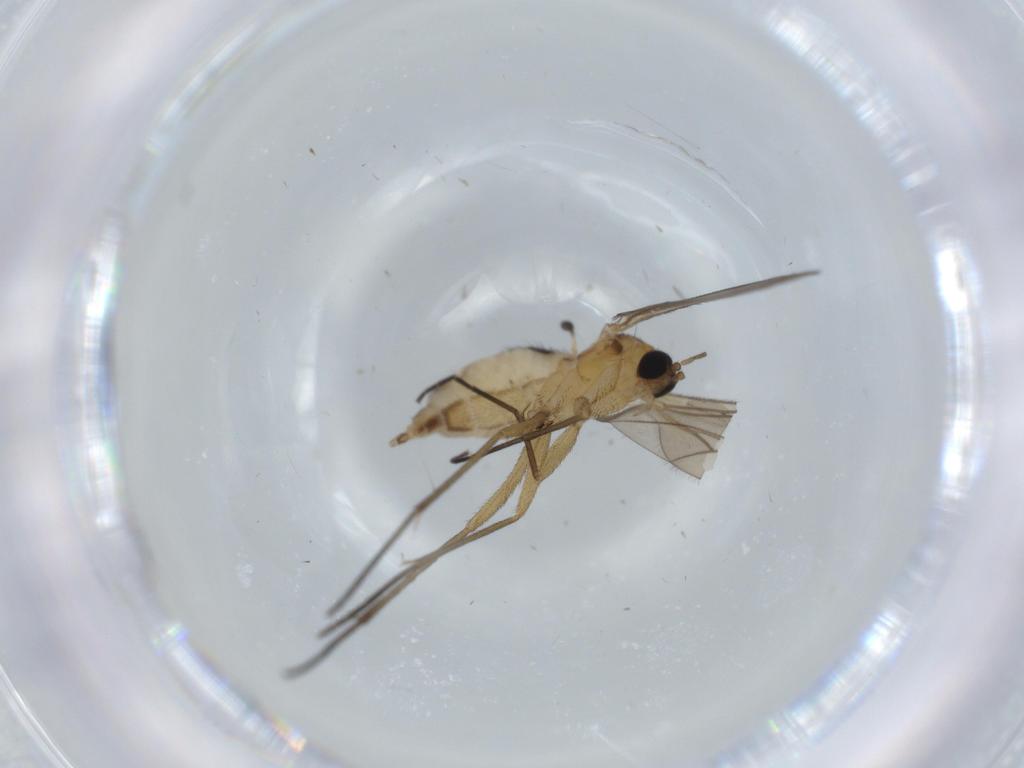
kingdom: Animalia
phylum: Arthropoda
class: Insecta
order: Diptera
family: Sciaridae
